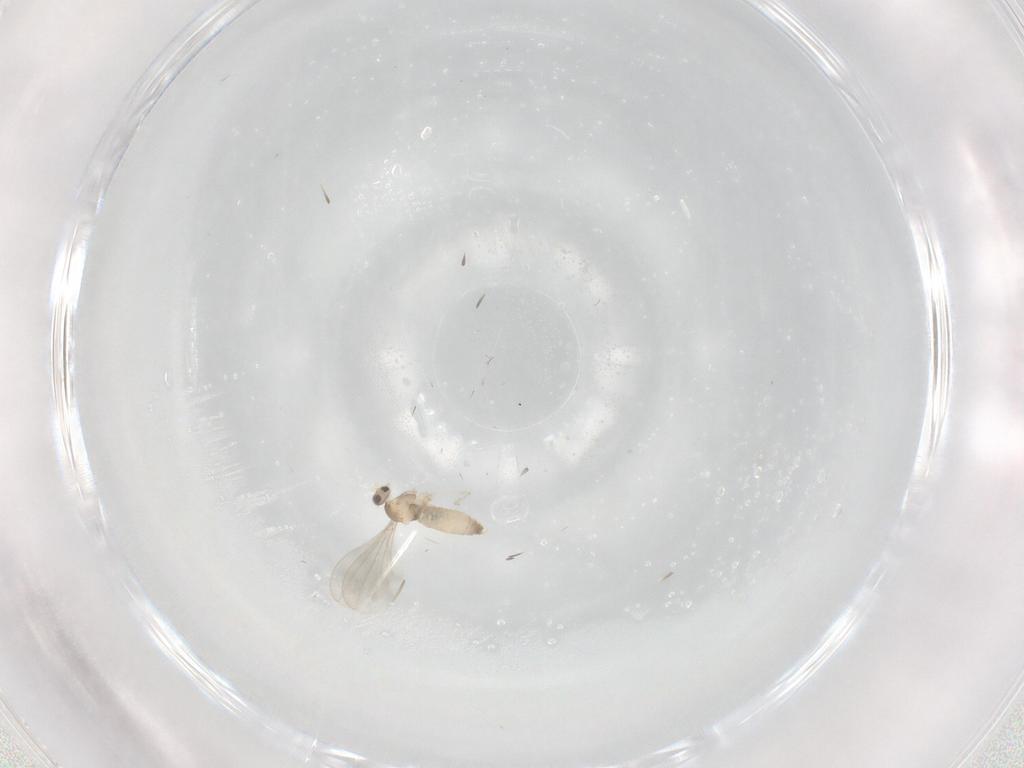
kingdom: Animalia
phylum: Arthropoda
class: Insecta
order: Diptera
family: Cecidomyiidae
